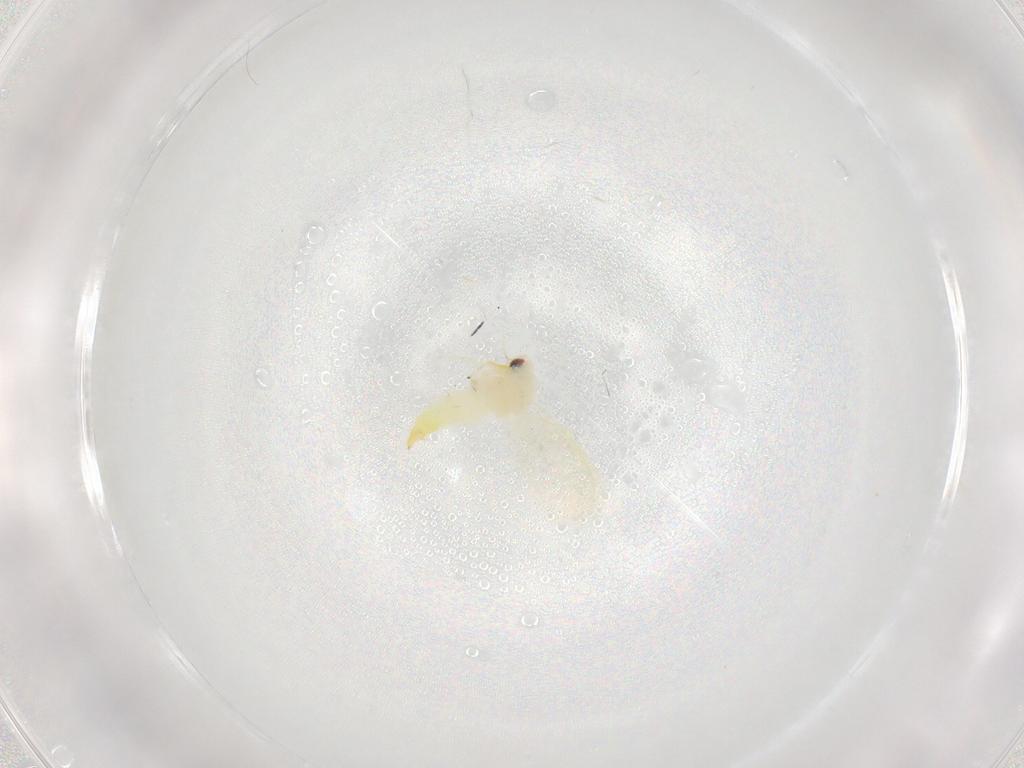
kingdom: Animalia
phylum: Arthropoda
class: Insecta
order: Hemiptera
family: Aleyrodidae
